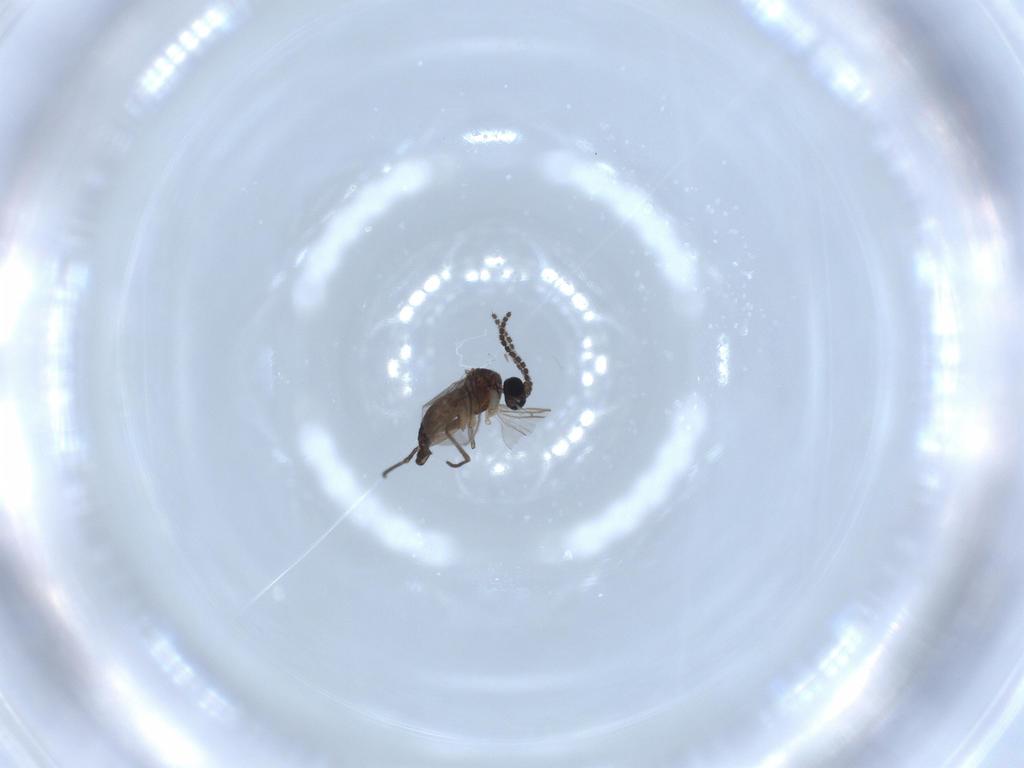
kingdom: Animalia
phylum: Arthropoda
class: Insecta
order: Diptera
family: Sciaridae
